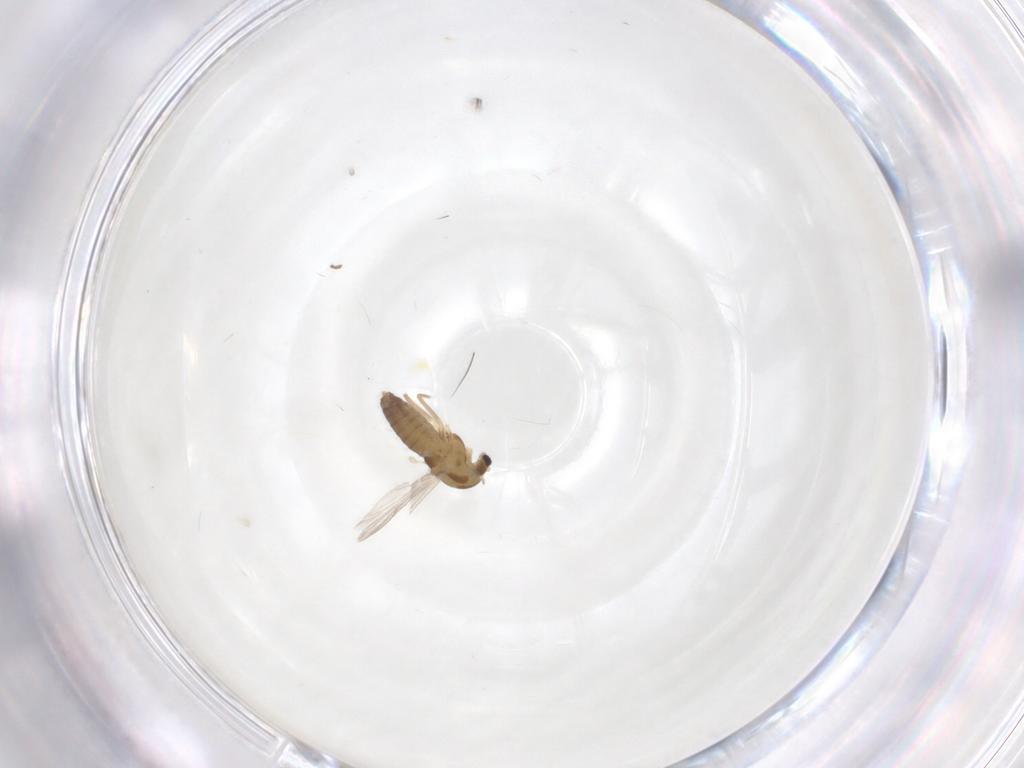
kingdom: Animalia
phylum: Arthropoda
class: Insecta
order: Diptera
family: Chironomidae
